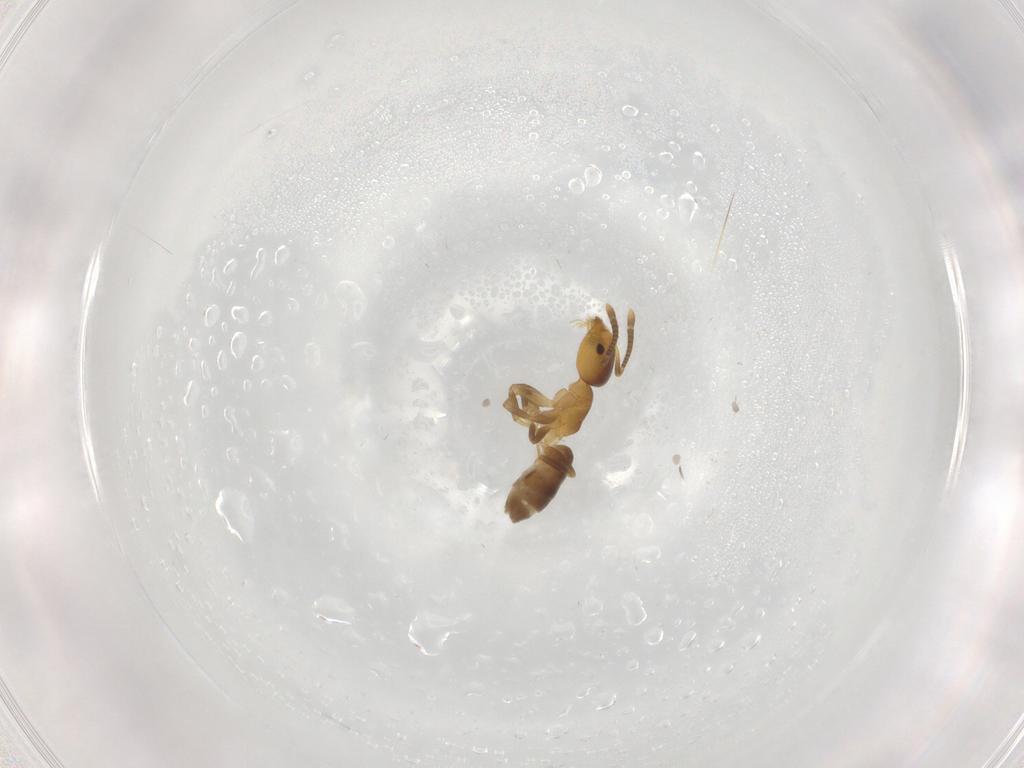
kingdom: Animalia
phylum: Arthropoda
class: Insecta
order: Hymenoptera
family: Formicidae
